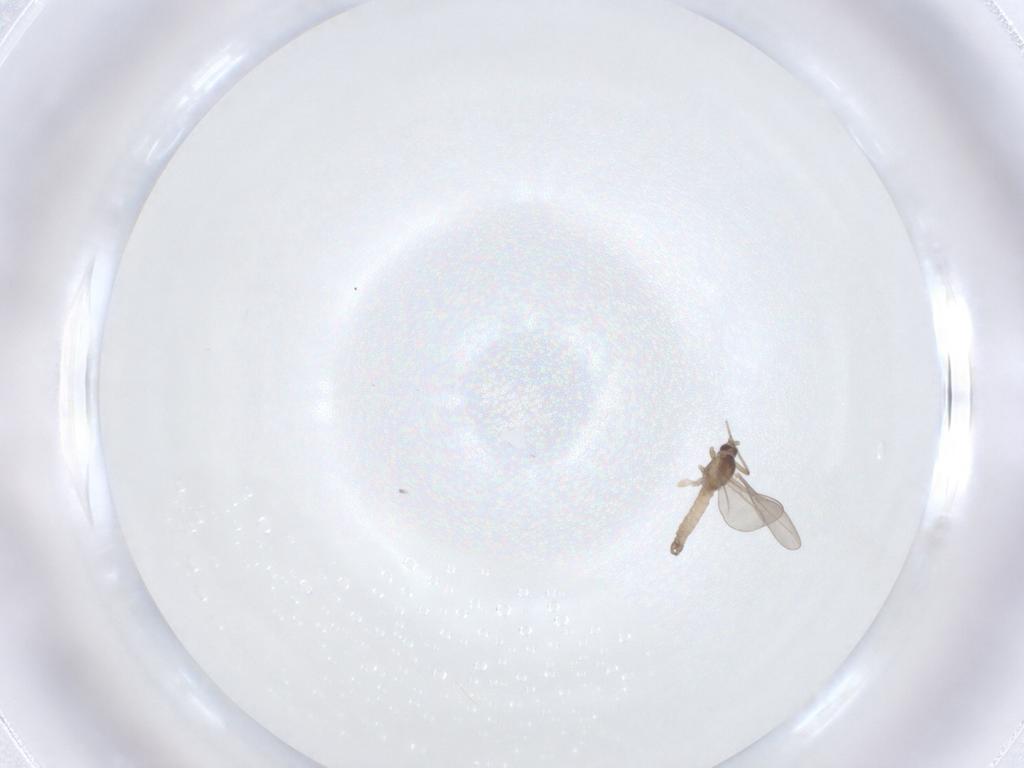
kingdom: Animalia
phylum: Arthropoda
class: Insecta
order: Diptera
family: Cecidomyiidae
